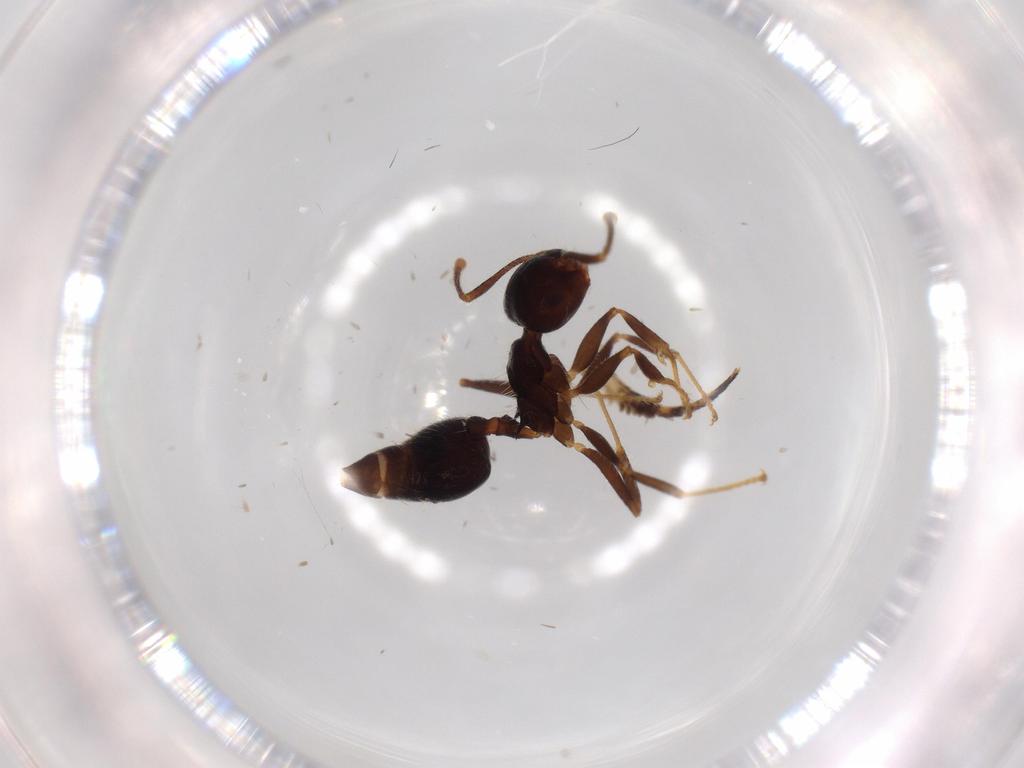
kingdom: Animalia
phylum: Arthropoda
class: Insecta
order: Hymenoptera
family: Formicidae
